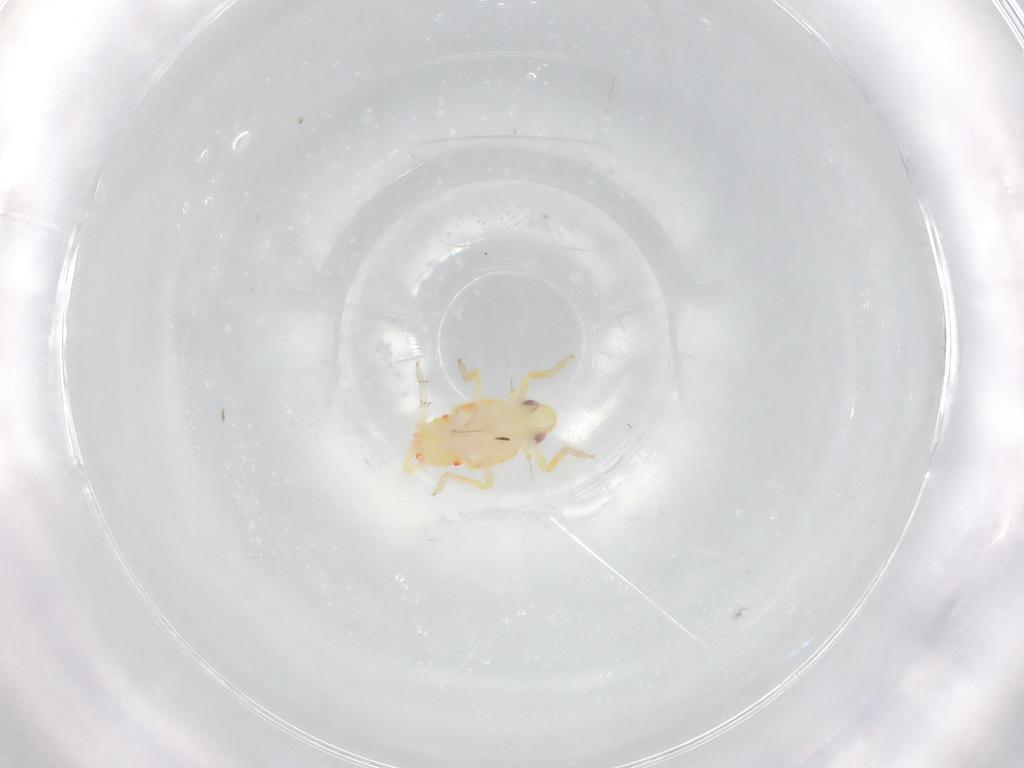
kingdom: Animalia
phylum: Arthropoda
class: Insecta
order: Hemiptera
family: Tropiduchidae
